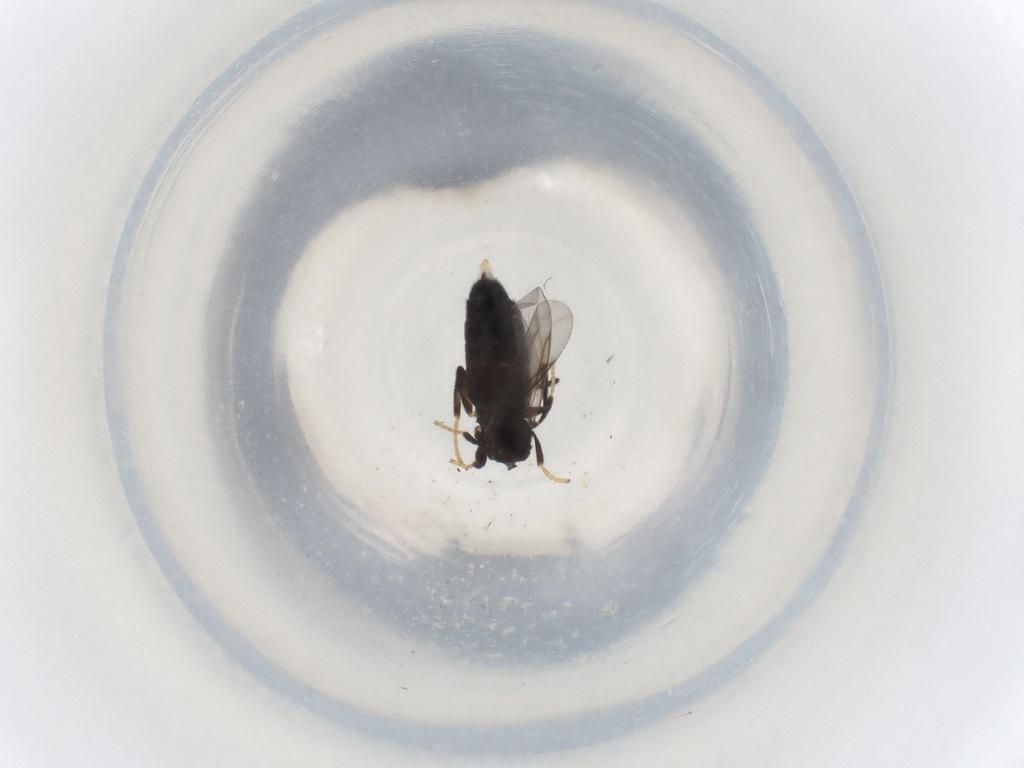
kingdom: Animalia
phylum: Arthropoda
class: Insecta
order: Diptera
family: Scatopsidae
